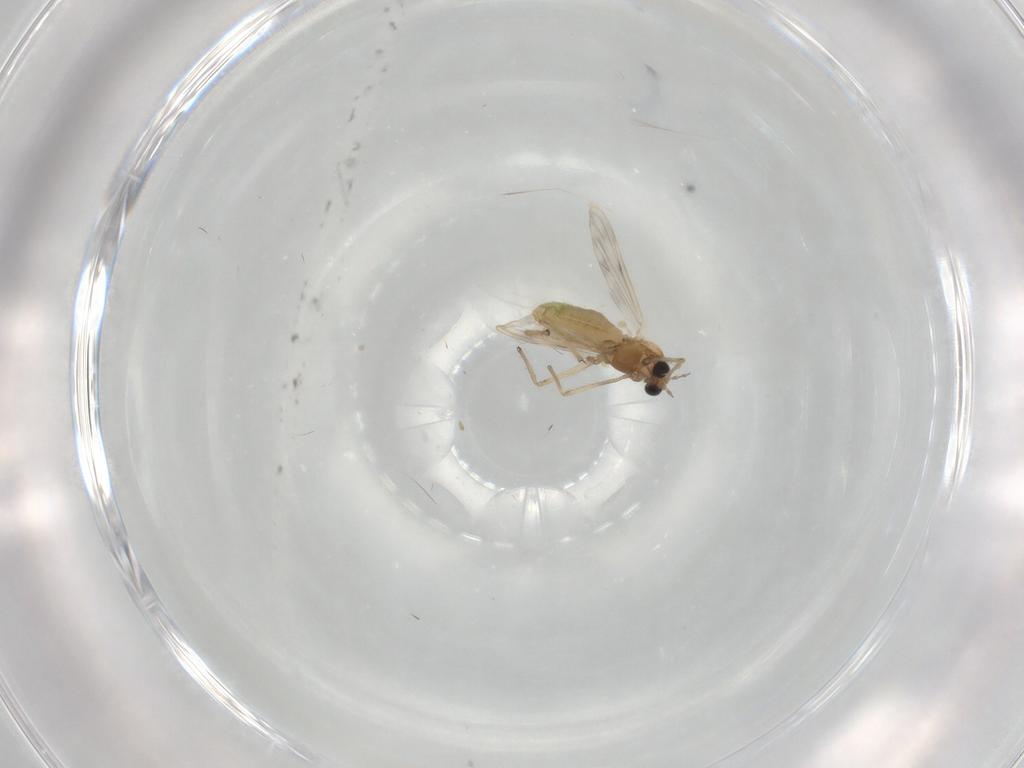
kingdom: Animalia
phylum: Arthropoda
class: Insecta
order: Diptera
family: Chironomidae
